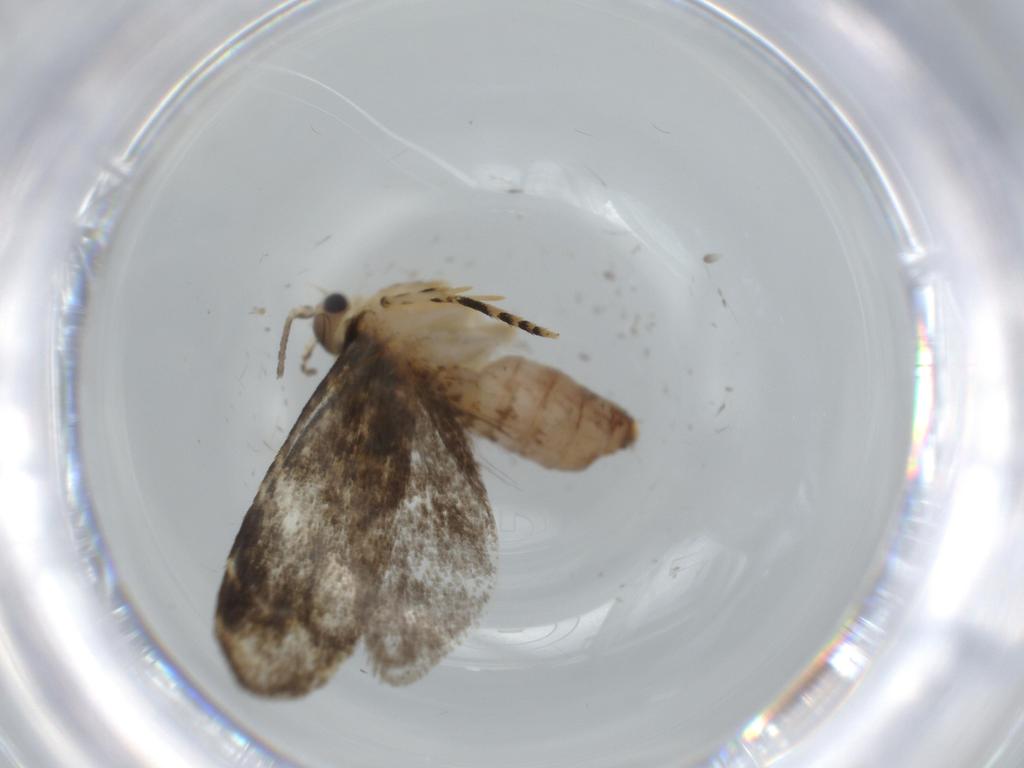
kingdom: Animalia
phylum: Arthropoda
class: Insecta
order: Lepidoptera
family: Tineidae
